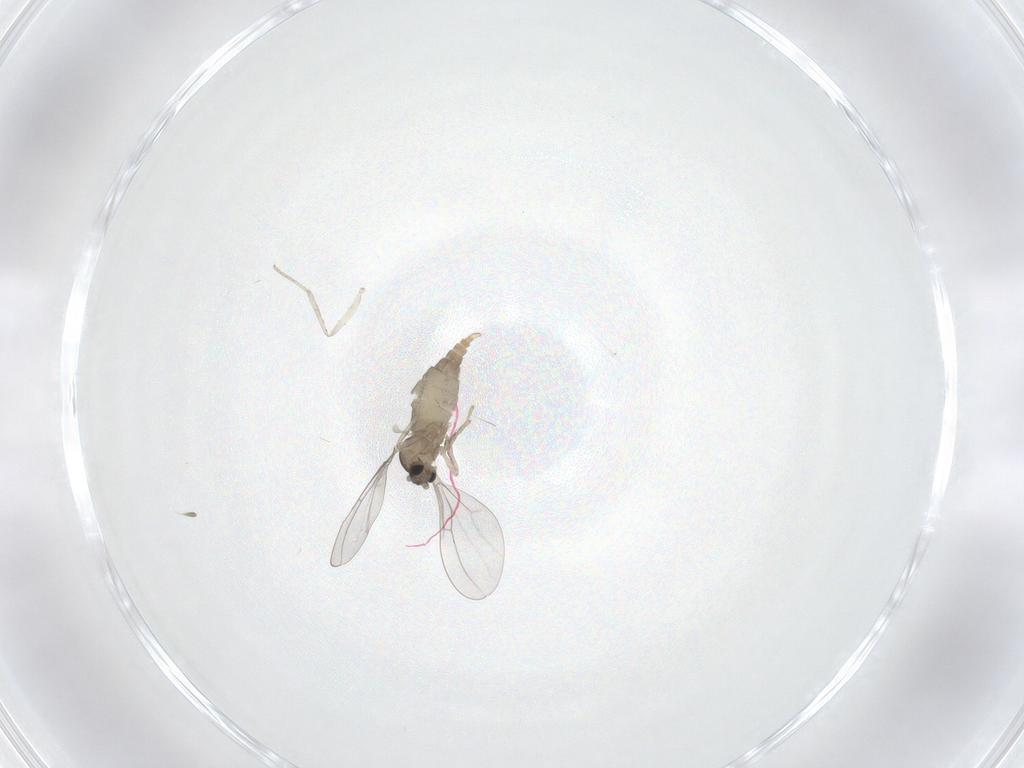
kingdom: Animalia
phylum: Arthropoda
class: Insecta
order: Diptera
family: Cecidomyiidae
